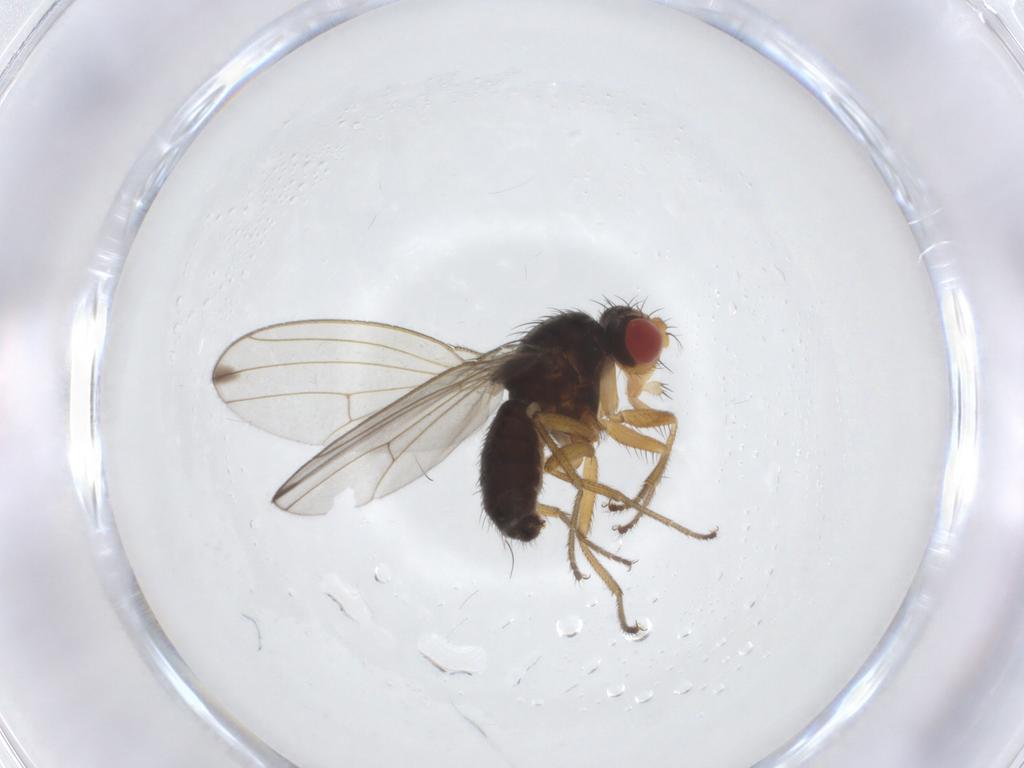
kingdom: Animalia
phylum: Arthropoda
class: Insecta
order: Diptera
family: Drosophilidae
